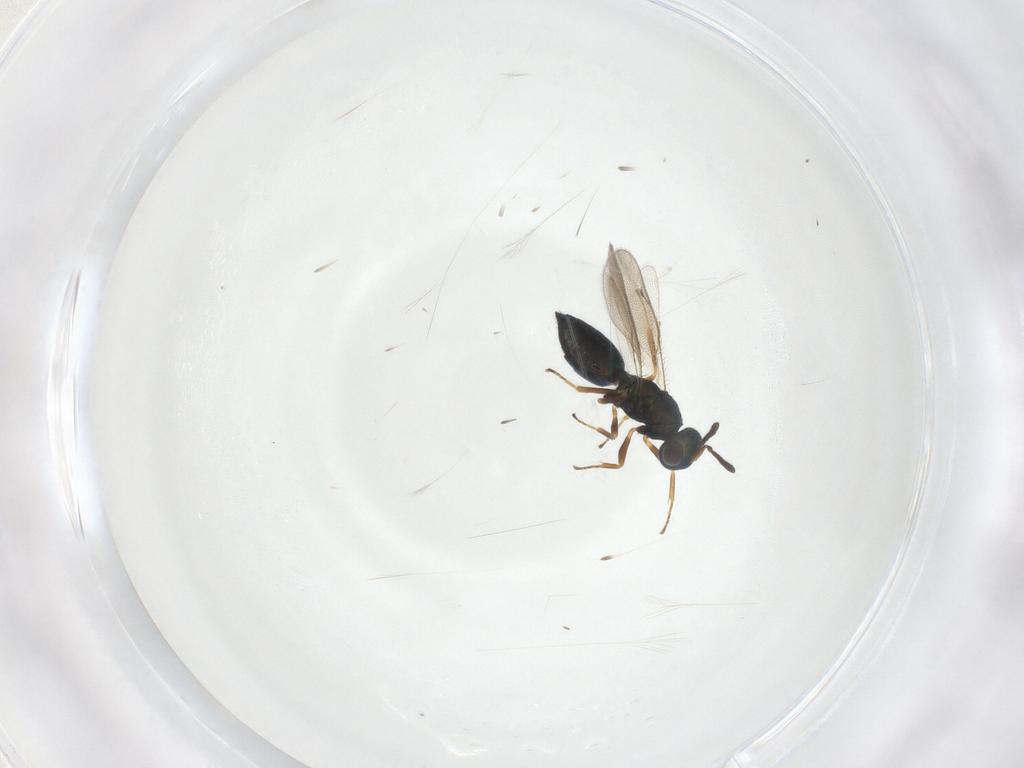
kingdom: Animalia
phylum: Arthropoda
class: Insecta
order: Hymenoptera
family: Pteromalidae
